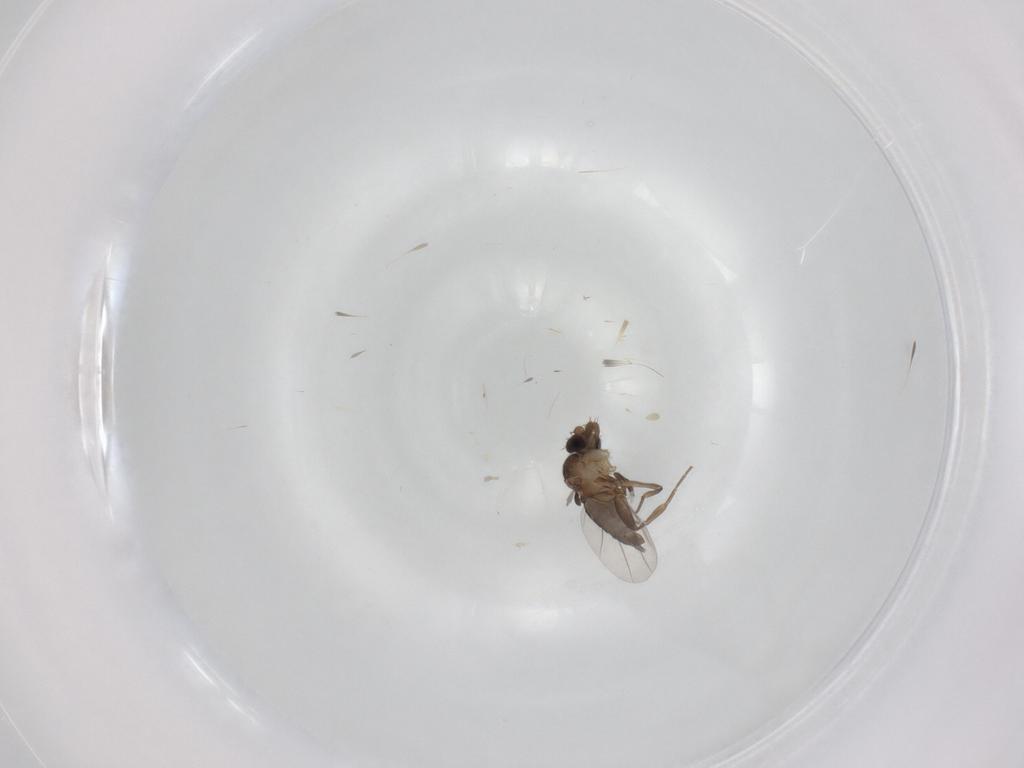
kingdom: Animalia
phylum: Arthropoda
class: Insecta
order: Diptera
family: Phoridae
